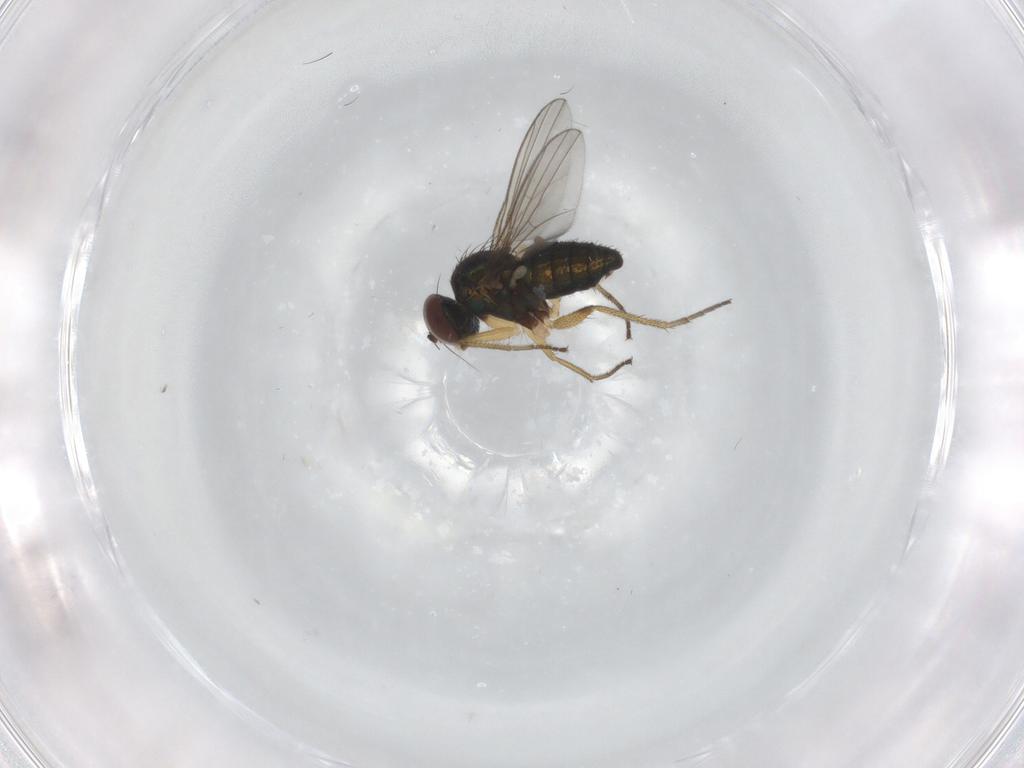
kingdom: Animalia
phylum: Arthropoda
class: Insecta
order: Diptera
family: Dolichopodidae
